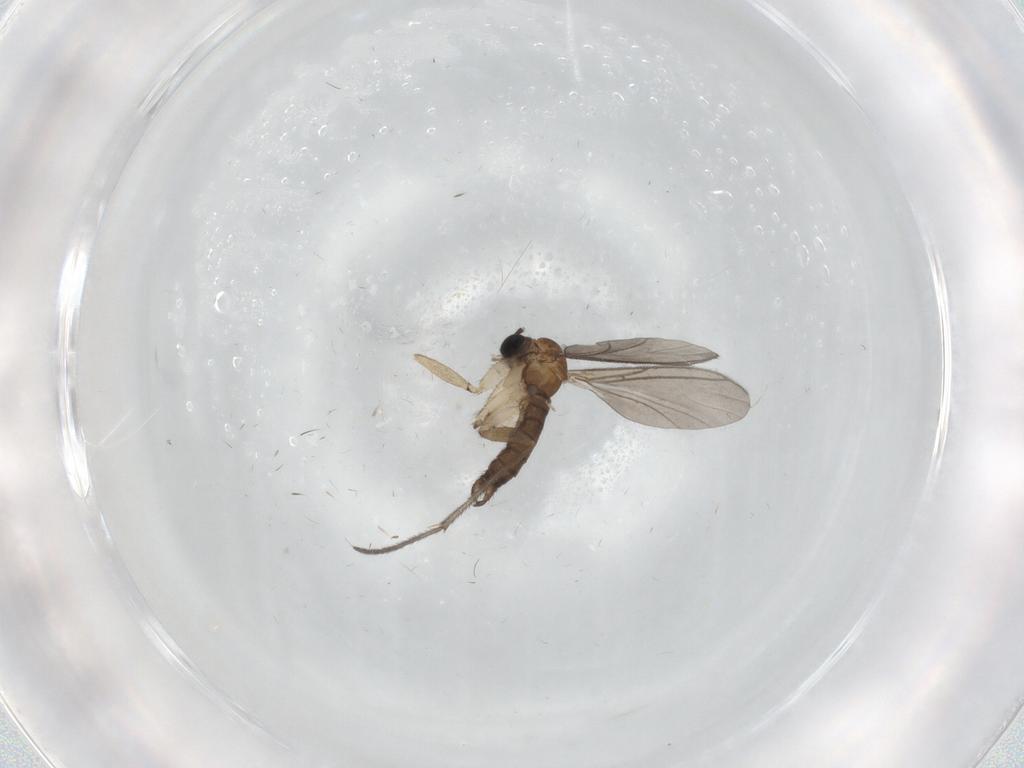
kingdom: Animalia
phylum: Arthropoda
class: Insecta
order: Diptera
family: Sciaridae
